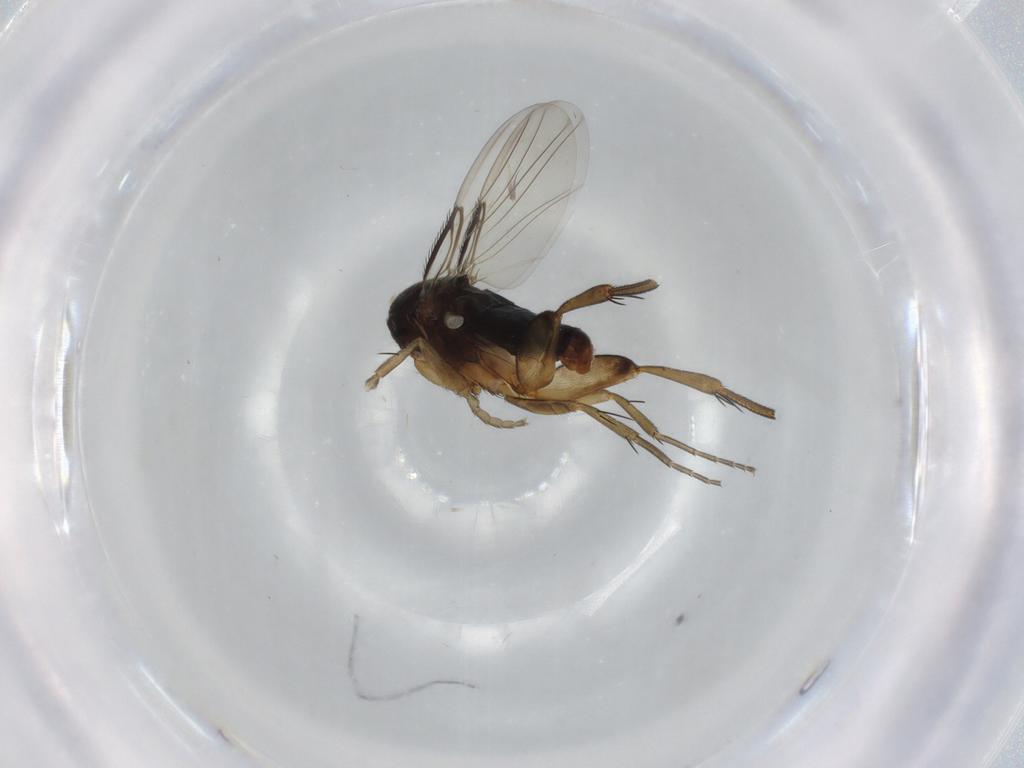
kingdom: Animalia
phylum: Arthropoda
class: Insecta
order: Diptera
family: Phoridae
